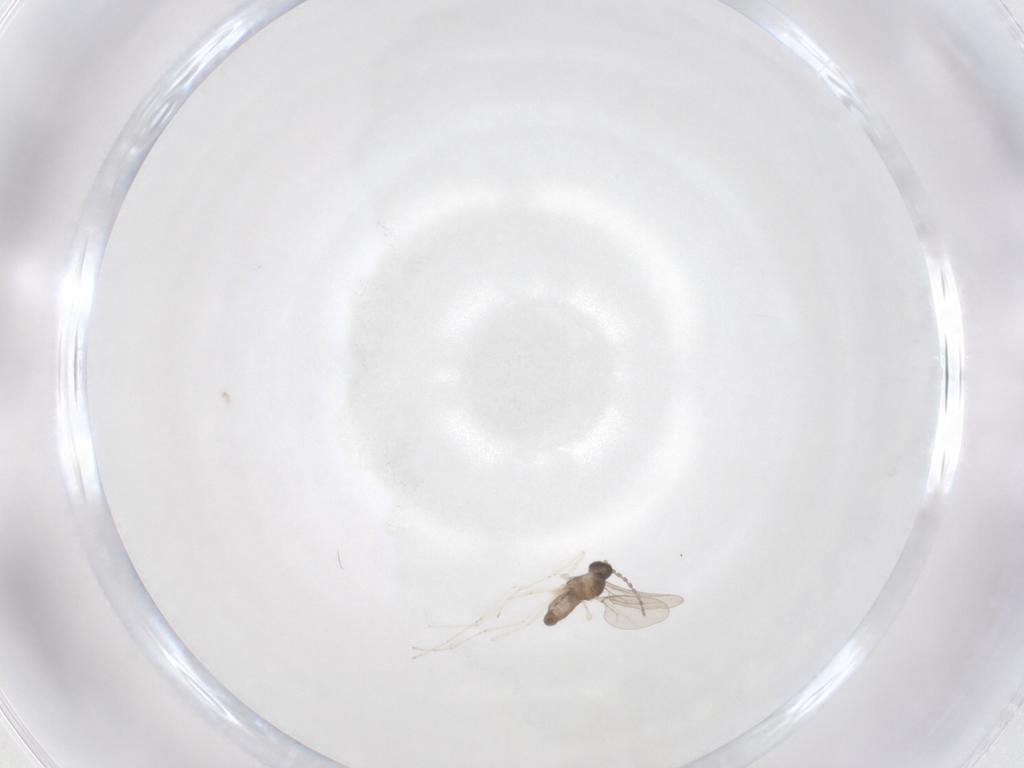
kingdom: Animalia
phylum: Arthropoda
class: Insecta
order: Diptera
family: Cecidomyiidae
